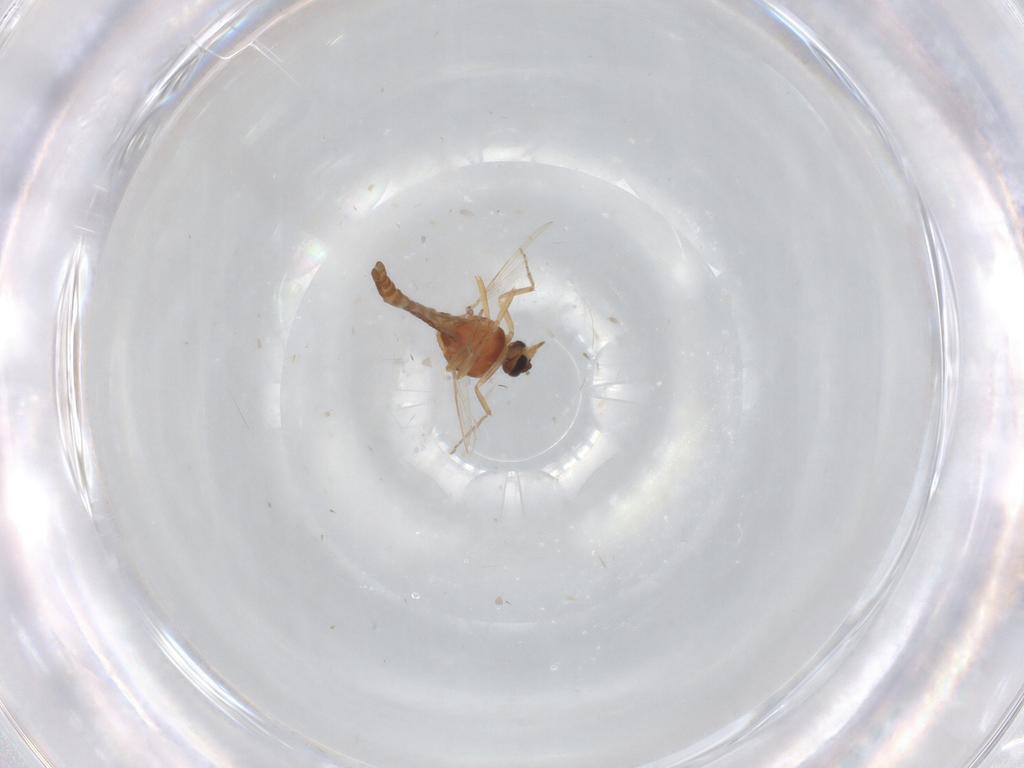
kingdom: Animalia
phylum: Arthropoda
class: Insecta
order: Diptera
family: Ceratopogonidae
